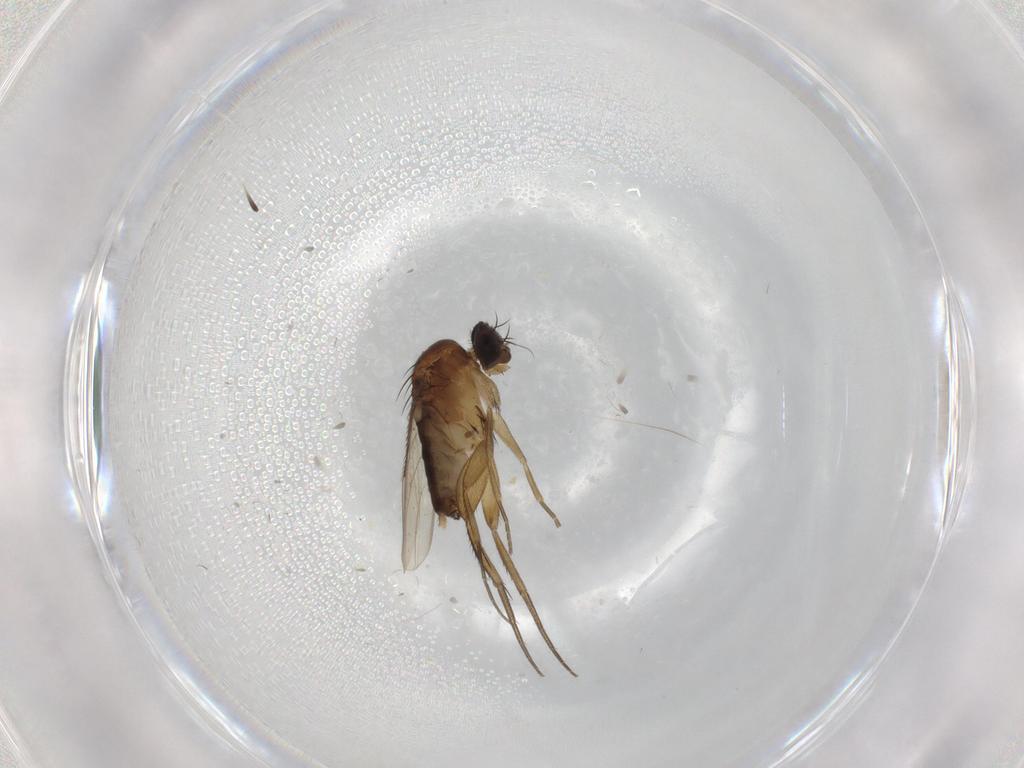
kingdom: Animalia
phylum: Arthropoda
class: Insecta
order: Diptera
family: Phoridae
